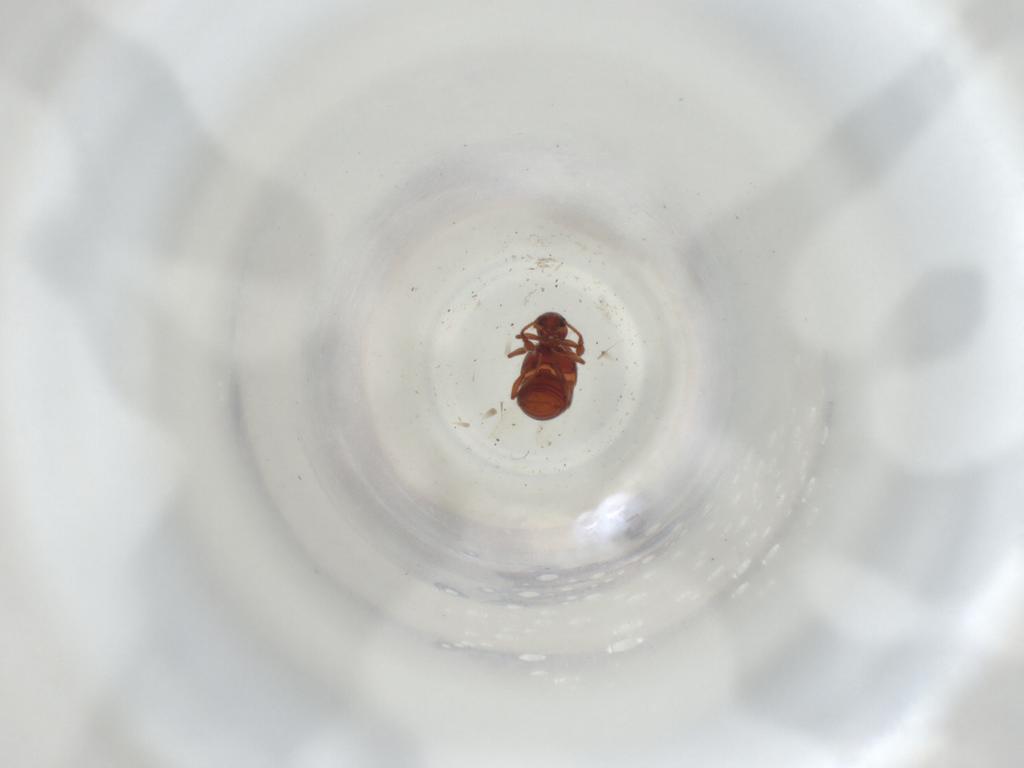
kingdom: Animalia
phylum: Arthropoda
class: Insecta
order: Coleoptera
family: Staphylinidae
